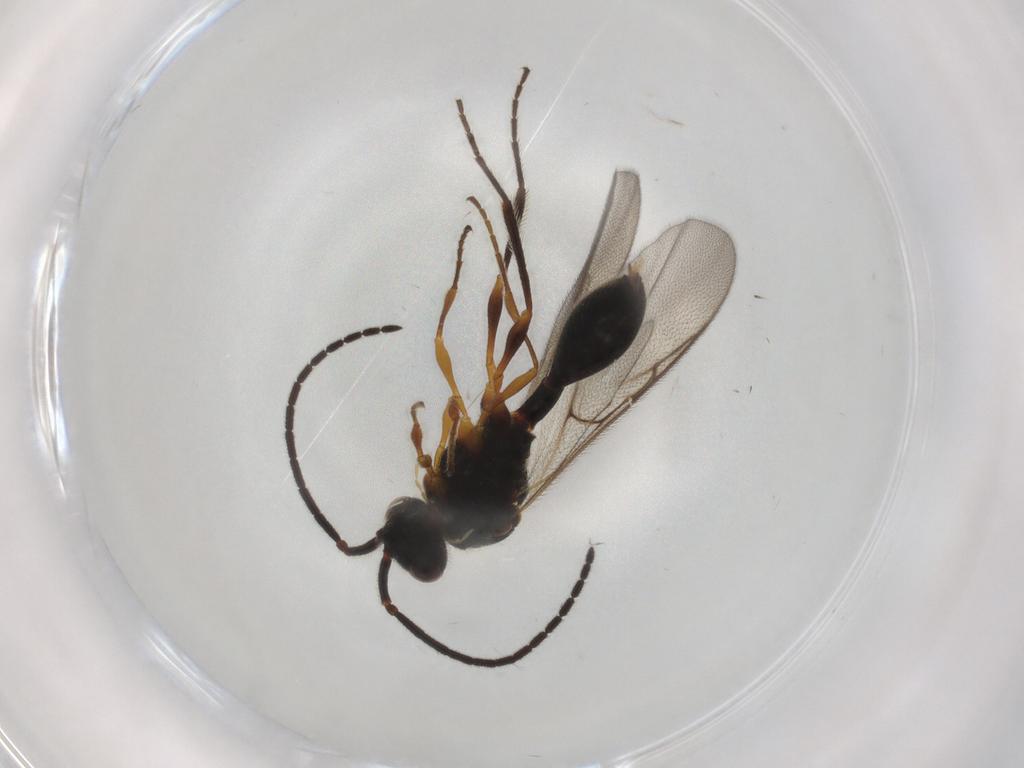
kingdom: Animalia
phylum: Arthropoda
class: Insecta
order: Hymenoptera
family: Diapriidae
